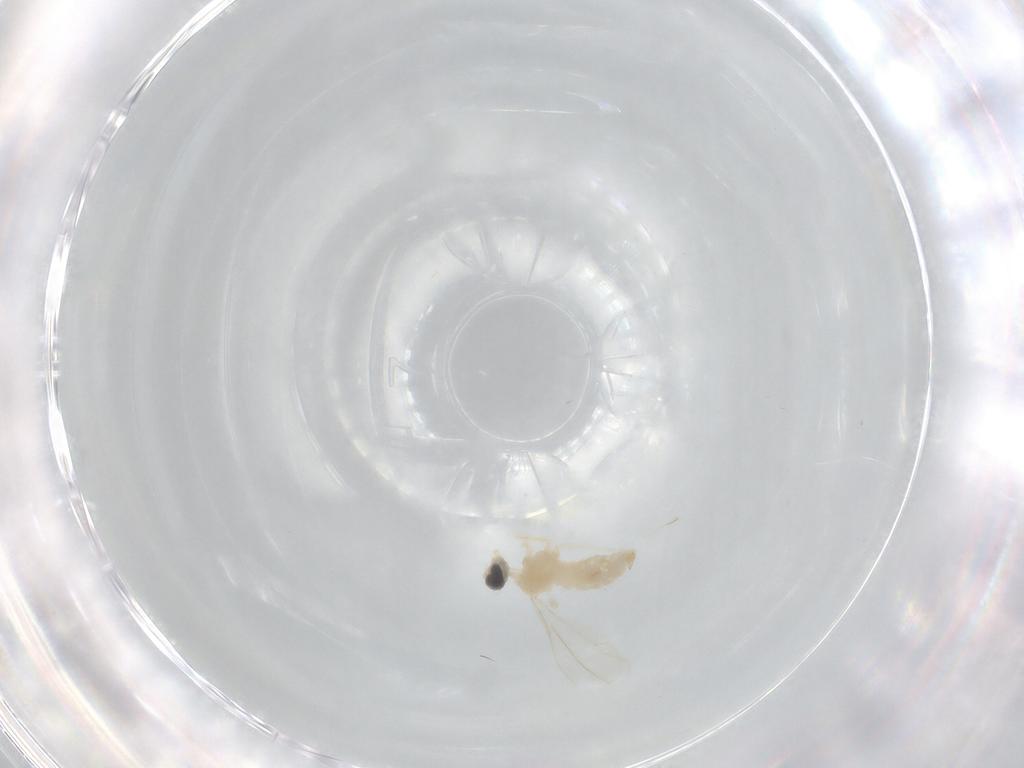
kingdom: Animalia
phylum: Arthropoda
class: Insecta
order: Diptera
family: Cecidomyiidae
